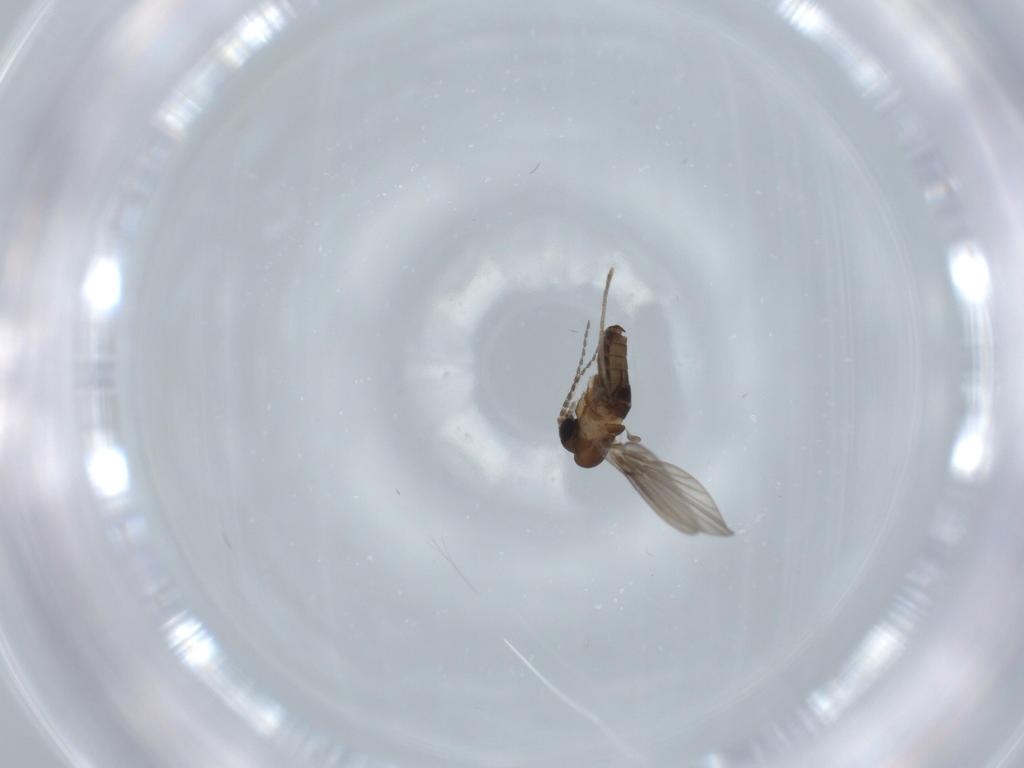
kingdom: Animalia
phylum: Arthropoda
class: Insecta
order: Diptera
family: Psychodidae
